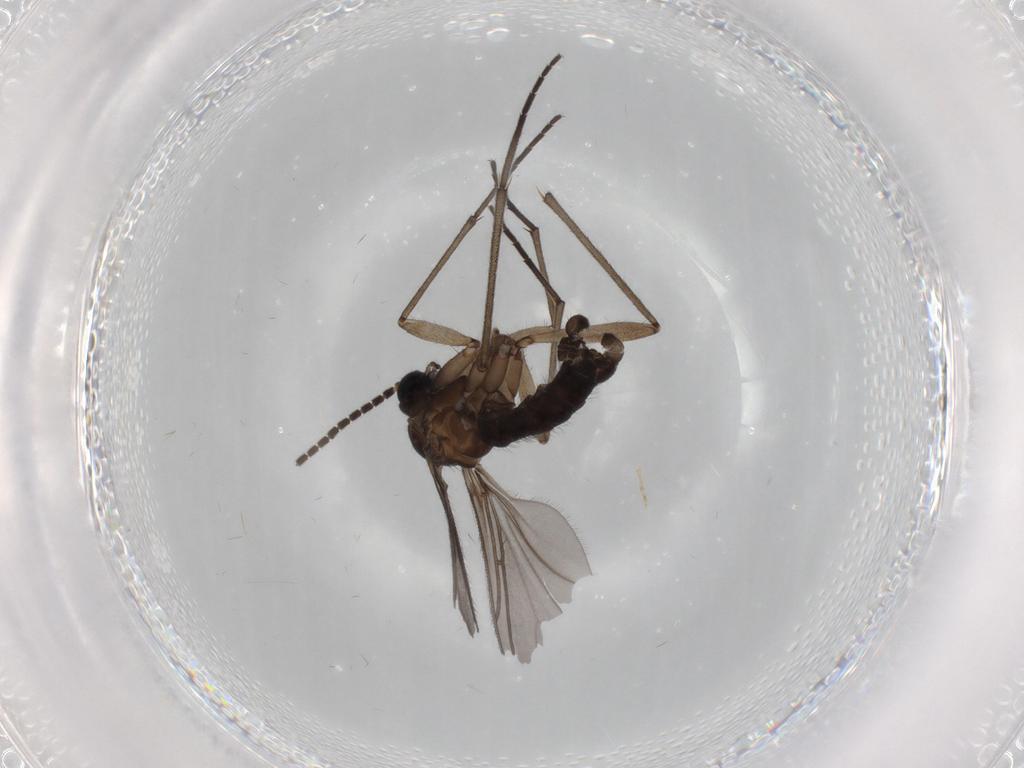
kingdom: Animalia
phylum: Arthropoda
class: Insecta
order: Diptera
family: Sciaridae
